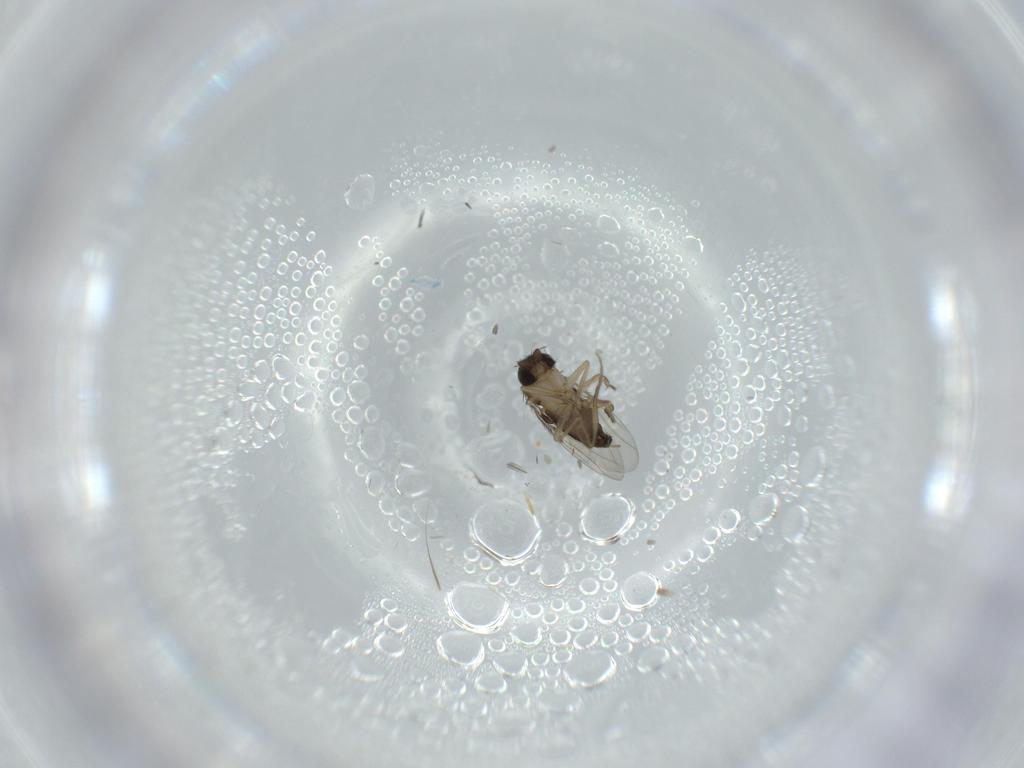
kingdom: Animalia
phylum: Arthropoda
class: Insecta
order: Diptera
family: Phoridae
